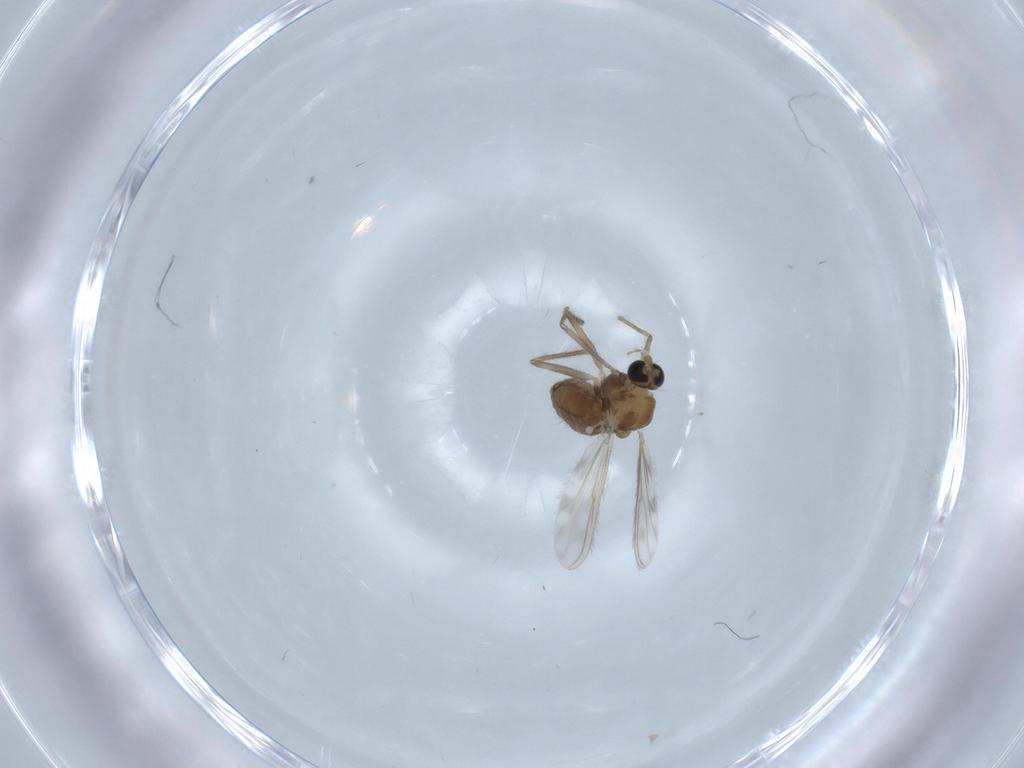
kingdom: Animalia
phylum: Arthropoda
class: Insecta
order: Diptera
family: Chironomidae
